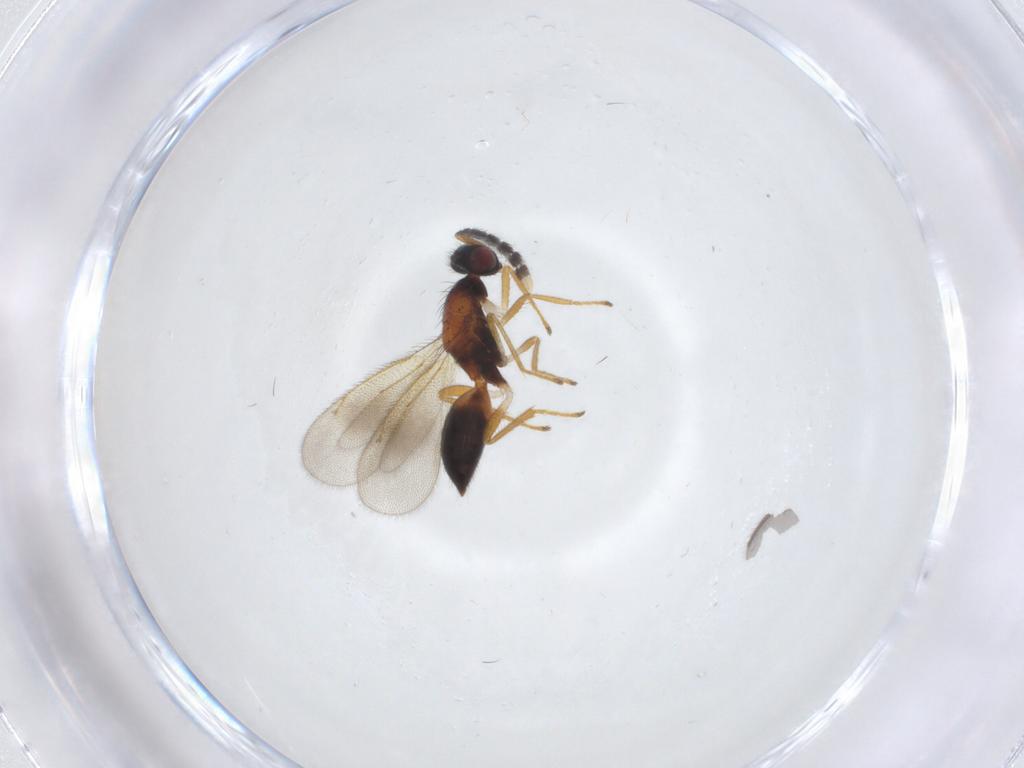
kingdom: Animalia
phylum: Arthropoda
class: Insecta
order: Hymenoptera
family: Eulophidae
